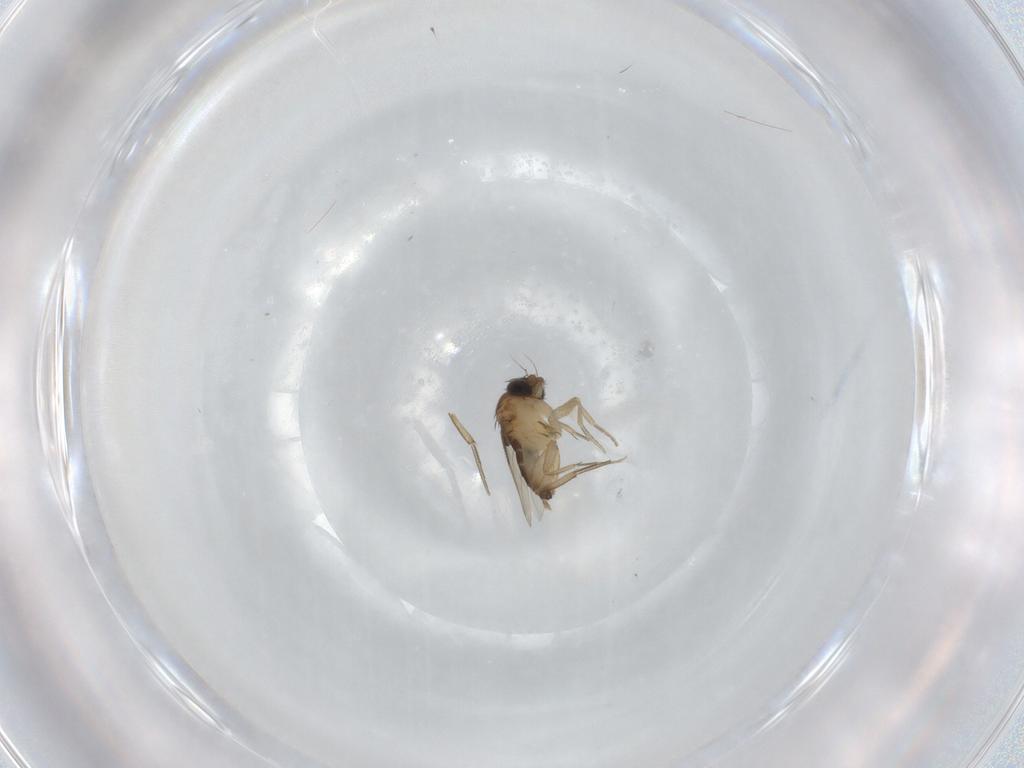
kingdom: Animalia
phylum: Arthropoda
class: Insecta
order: Diptera
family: Phoridae
